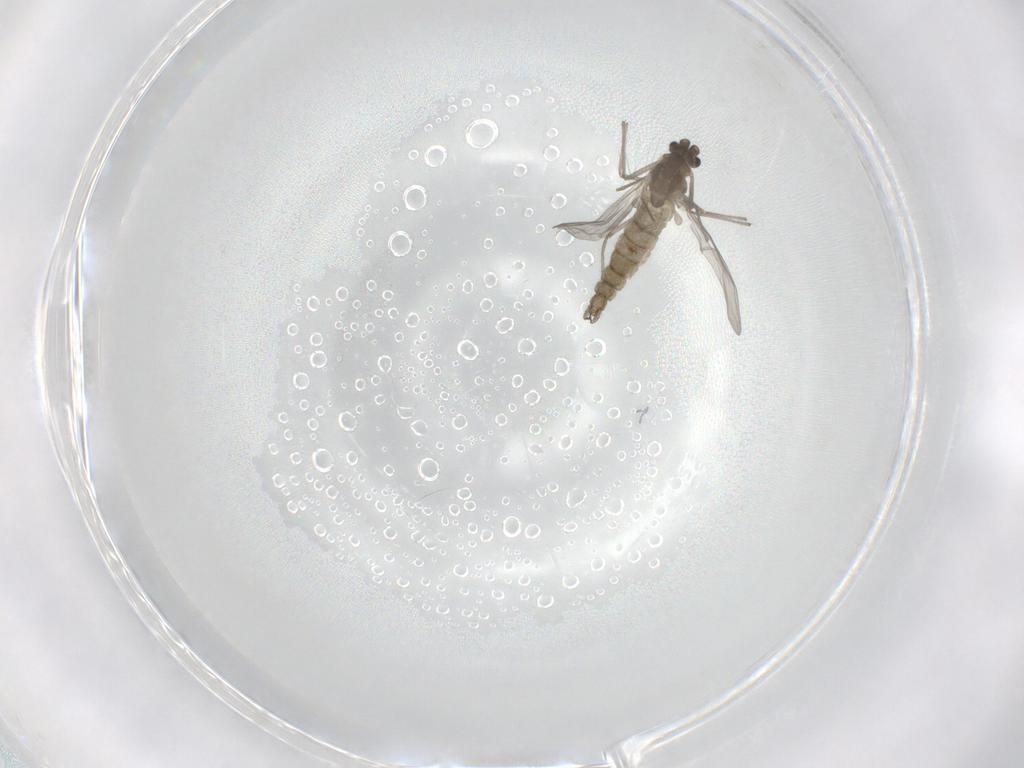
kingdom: Animalia
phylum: Arthropoda
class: Insecta
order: Diptera
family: Chironomidae
